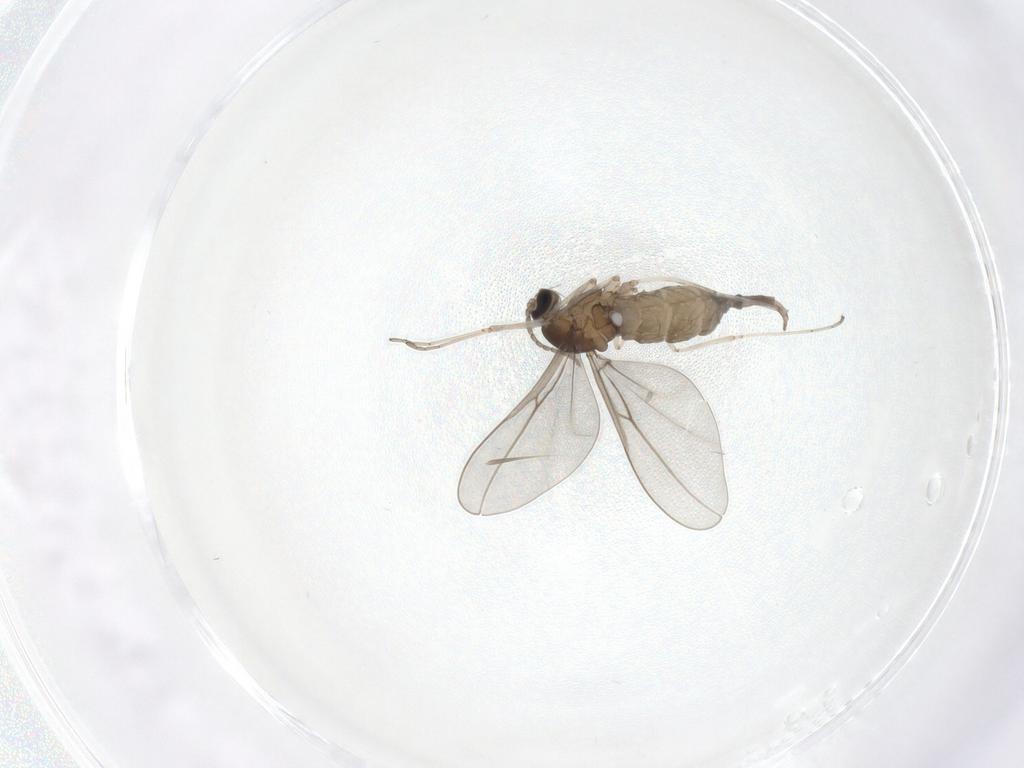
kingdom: Animalia
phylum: Arthropoda
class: Insecta
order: Diptera
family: Cecidomyiidae
